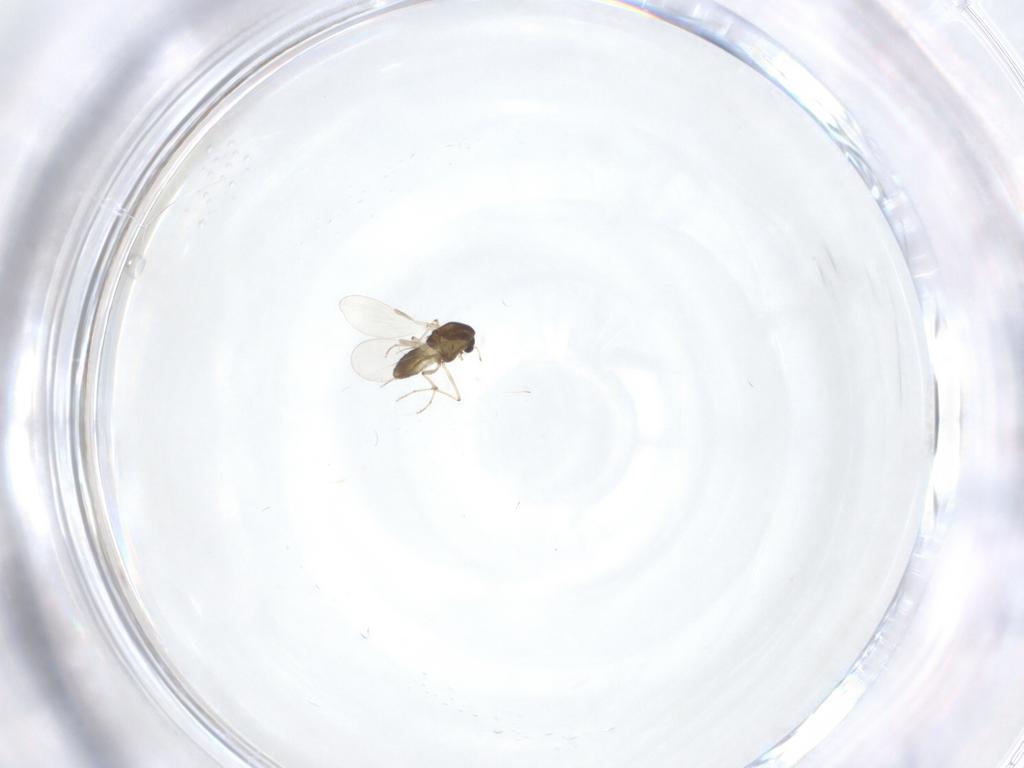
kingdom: Animalia
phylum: Arthropoda
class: Insecta
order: Diptera
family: Chironomidae
